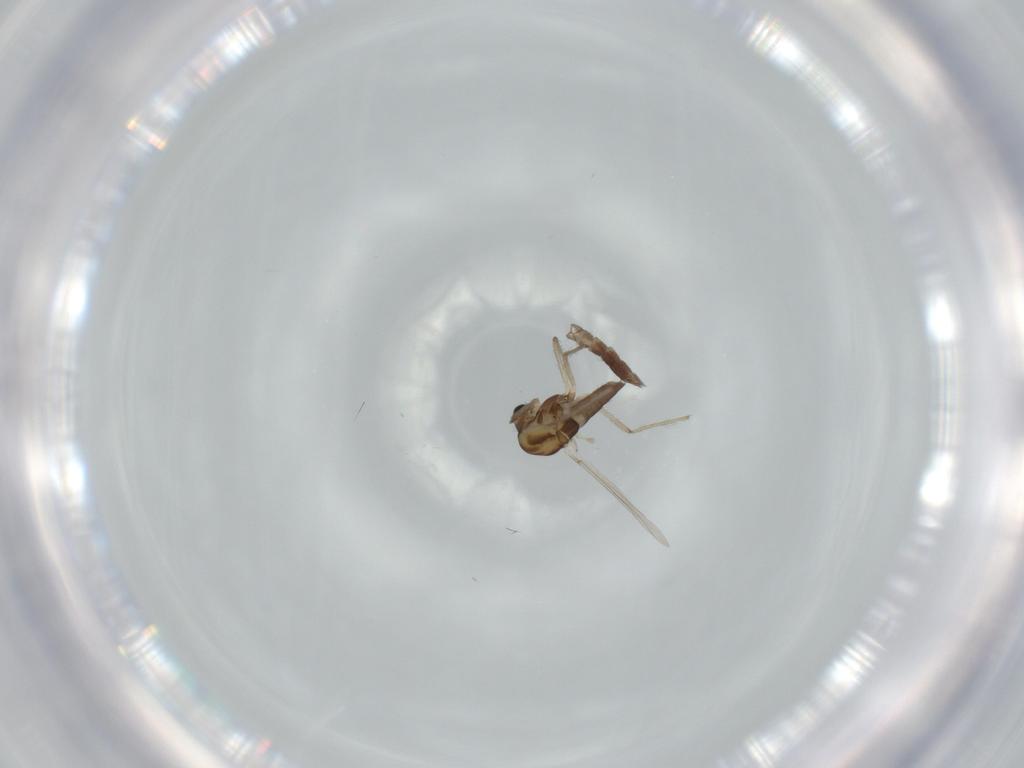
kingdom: Animalia
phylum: Arthropoda
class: Insecta
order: Diptera
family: Chironomidae
